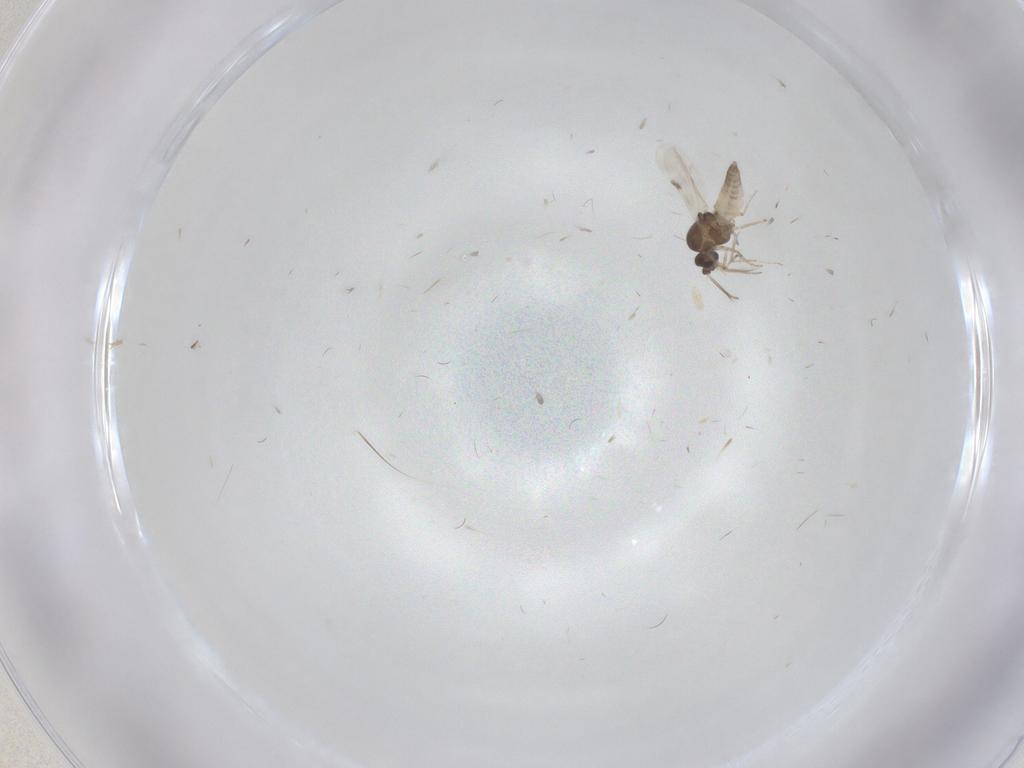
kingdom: Animalia
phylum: Arthropoda
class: Insecta
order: Diptera
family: Chironomidae
